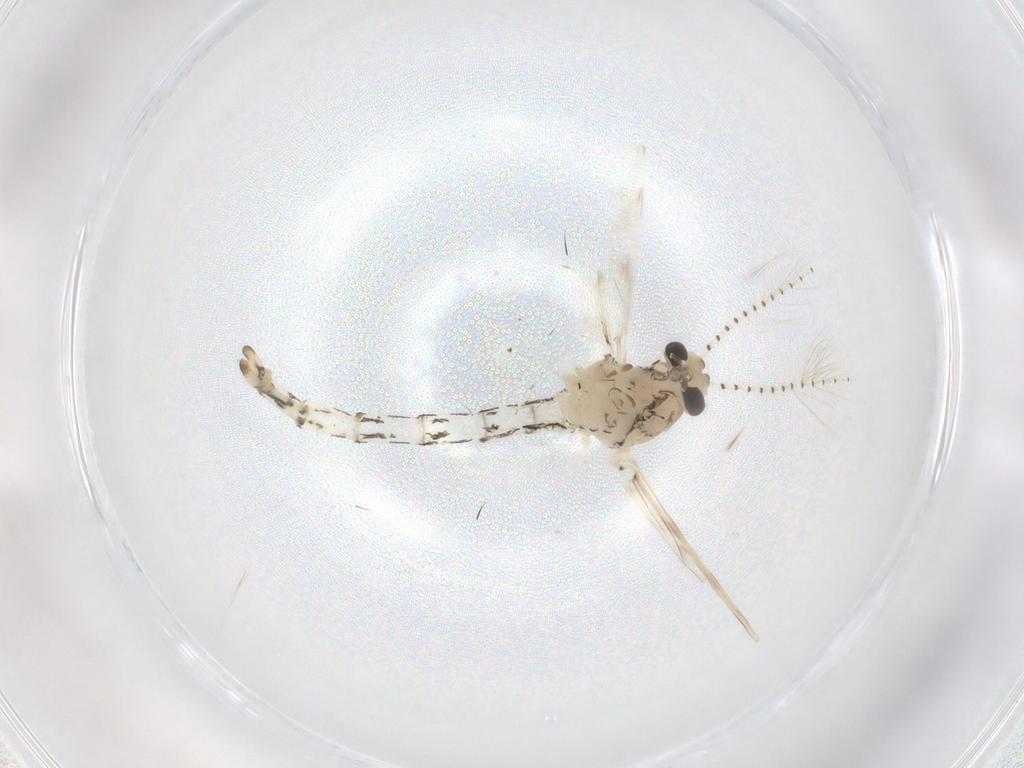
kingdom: Animalia
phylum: Arthropoda
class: Insecta
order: Diptera
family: Chaoboridae
